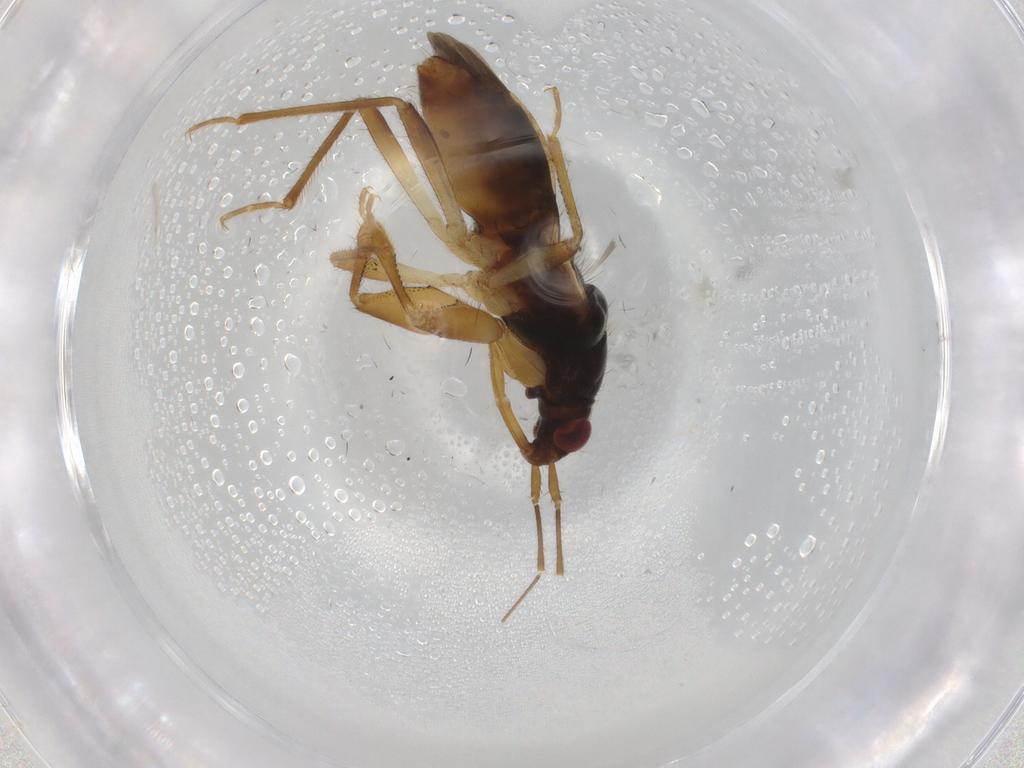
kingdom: Animalia
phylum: Arthropoda
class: Insecta
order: Hemiptera
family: Nabidae
